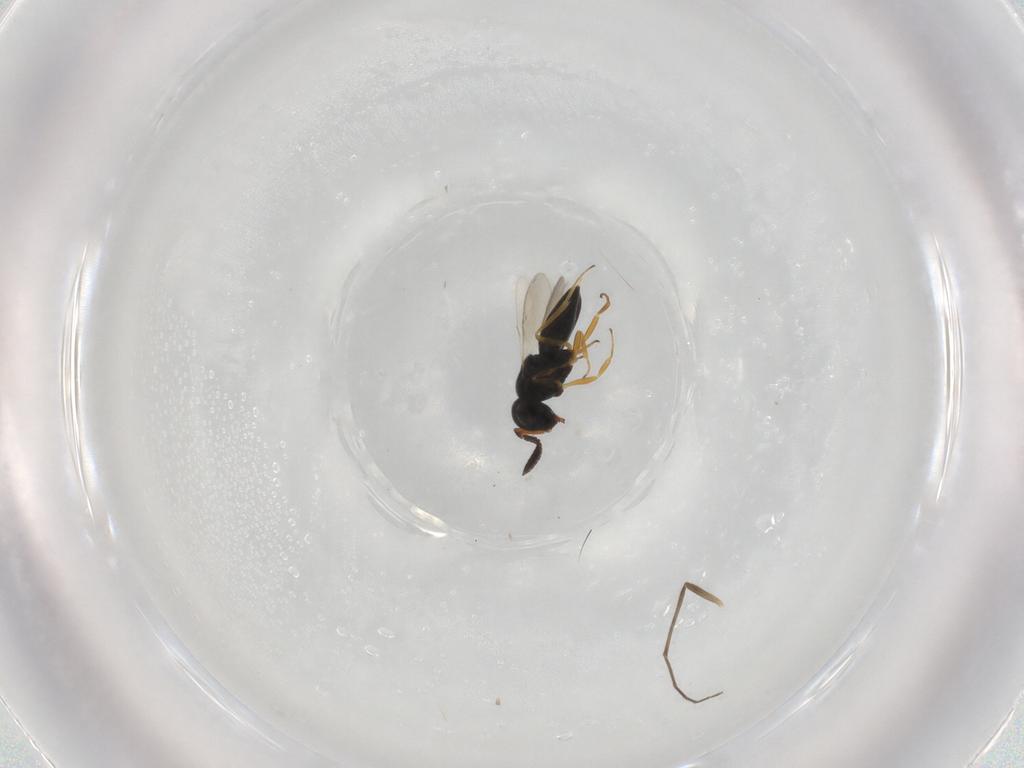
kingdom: Animalia
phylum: Arthropoda
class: Insecta
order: Hymenoptera
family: Scelionidae
